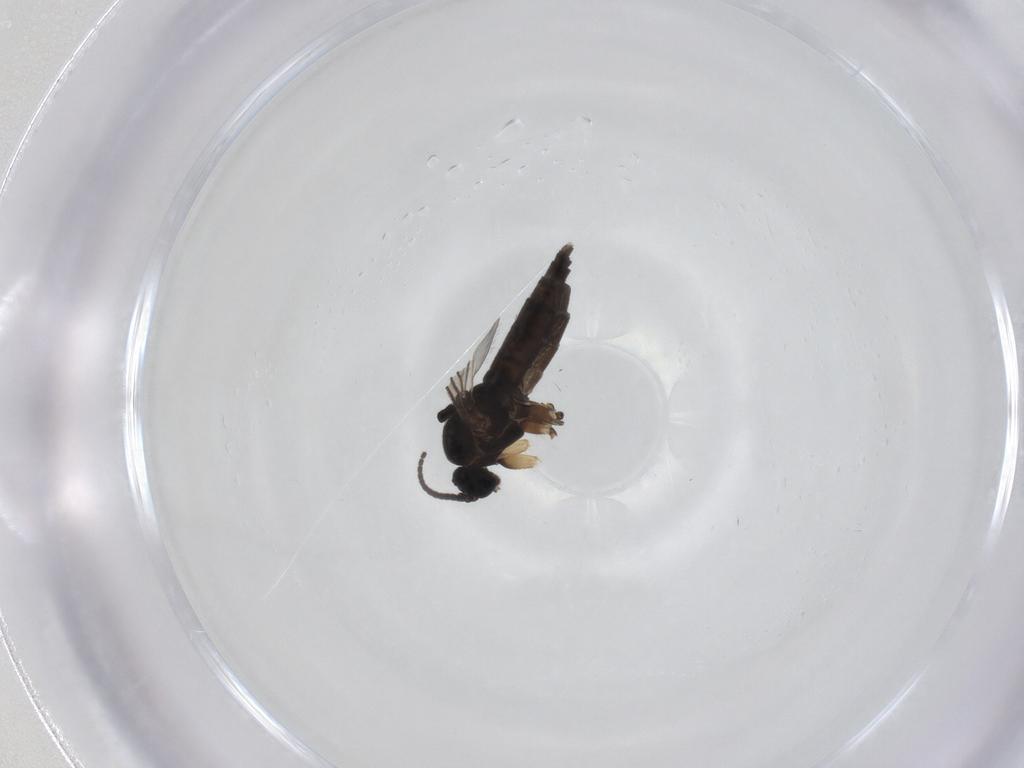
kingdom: Animalia
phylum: Arthropoda
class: Insecta
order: Diptera
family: Sciaridae
